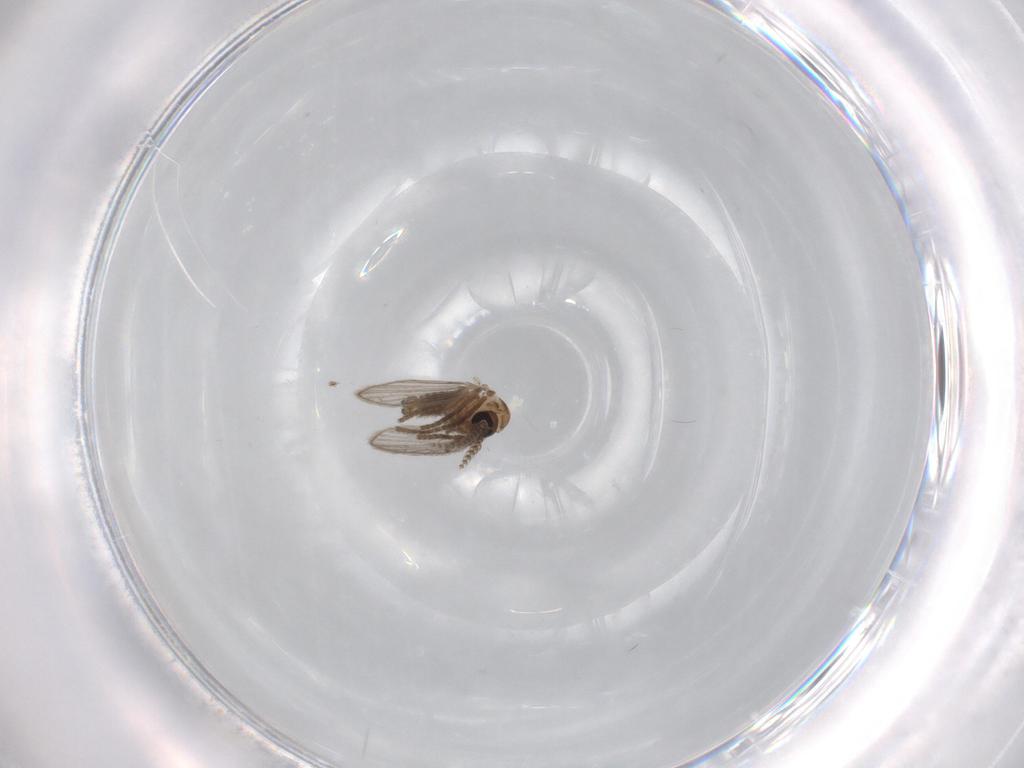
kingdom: Animalia
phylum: Arthropoda
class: Insecta
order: Diptera
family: Psychodidae
